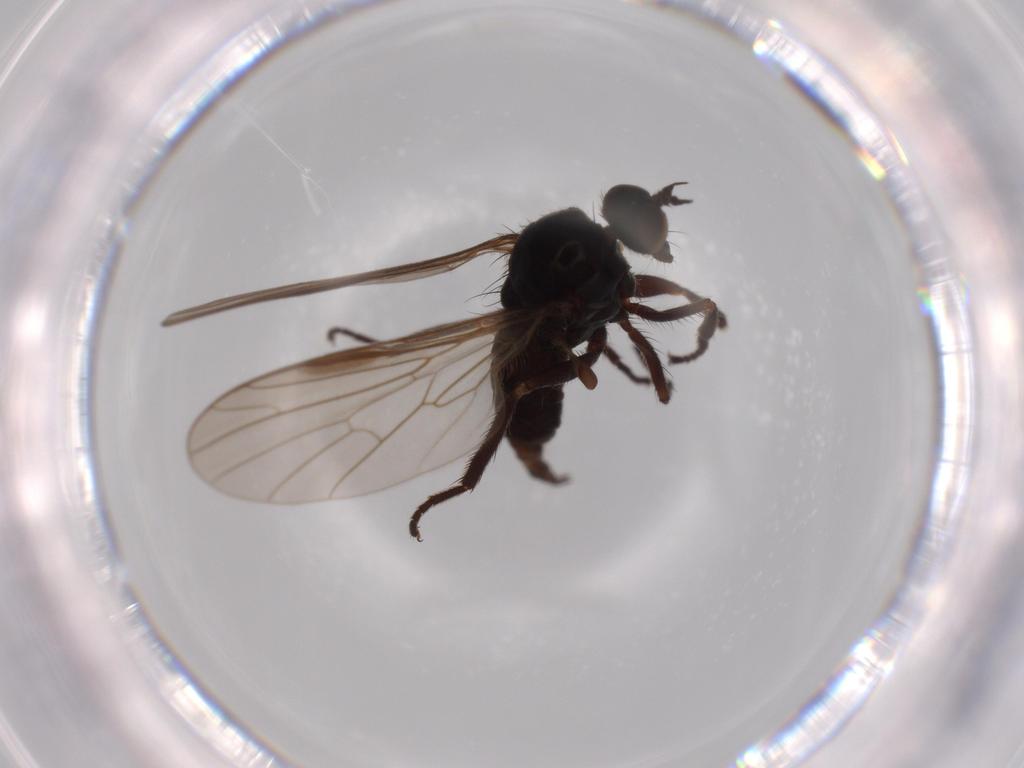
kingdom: Animalia
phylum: Arthropoda
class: Insecta
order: Diptera
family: Empididae
